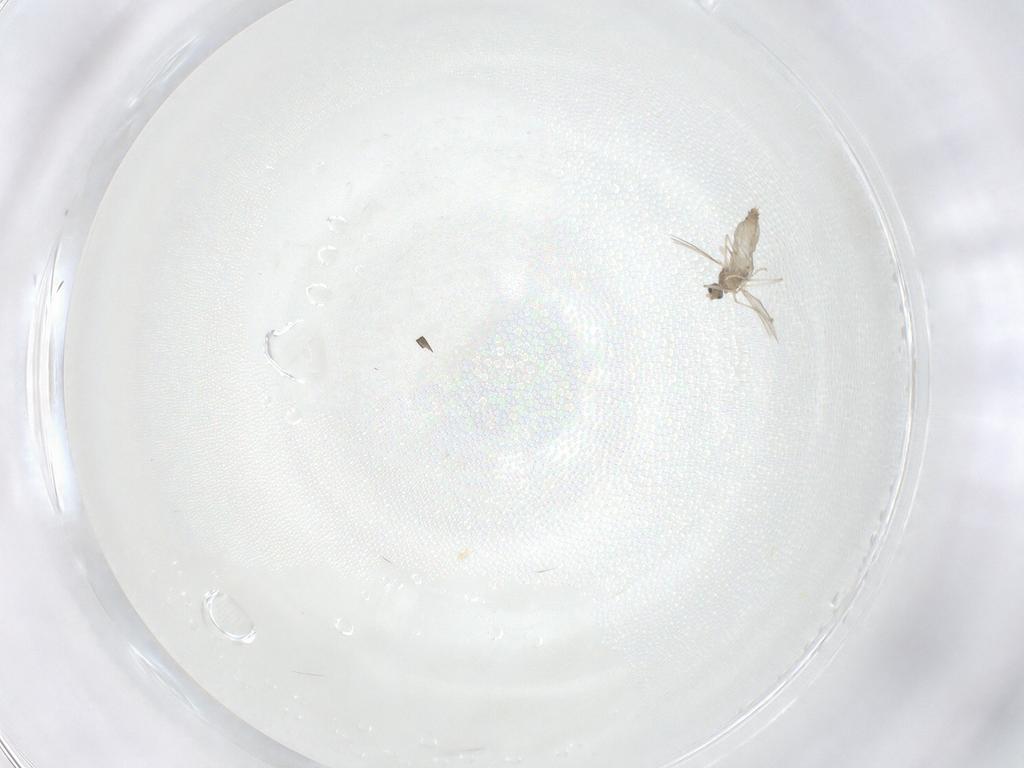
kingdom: Animalia
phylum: Arthropoda
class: Insecta
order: Diptera
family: Cecidomyiidae
